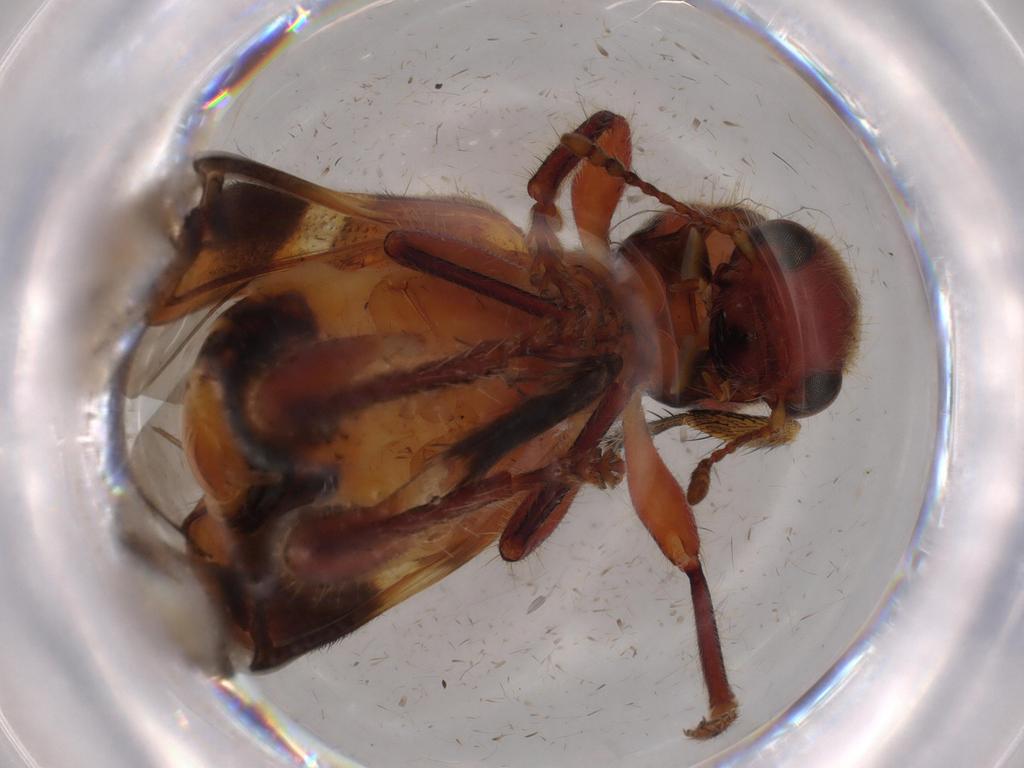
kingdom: Animalia
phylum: Arthropoda
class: Insecta
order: Coleoptera
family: Cleridae
